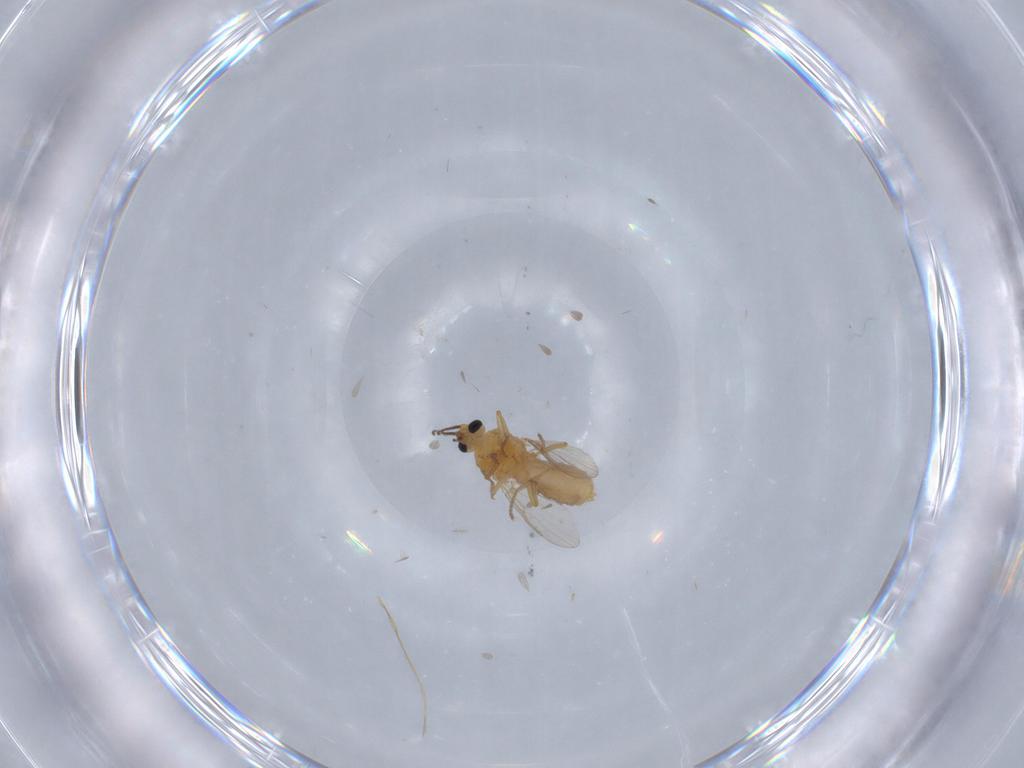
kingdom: Animalia
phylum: Arthropoda
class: Insecta
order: Diptera
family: Ceratopogonidae
